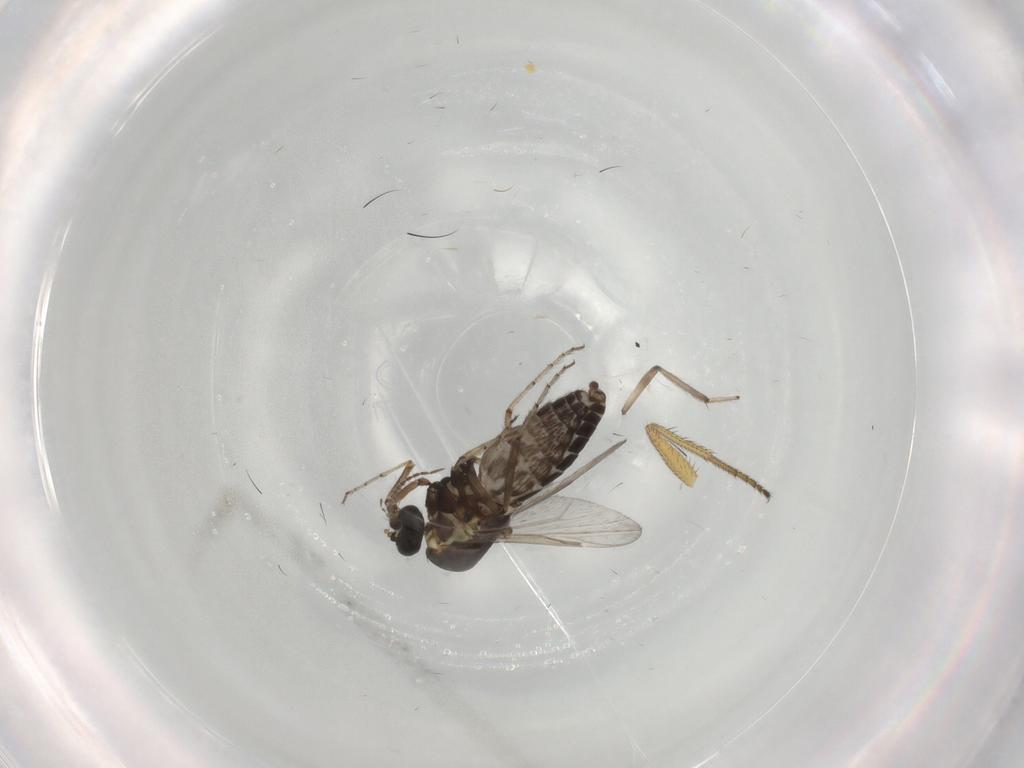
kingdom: Animalia
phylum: Arthropoda
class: Insecta
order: Diptera
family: Ceratopogonidae
